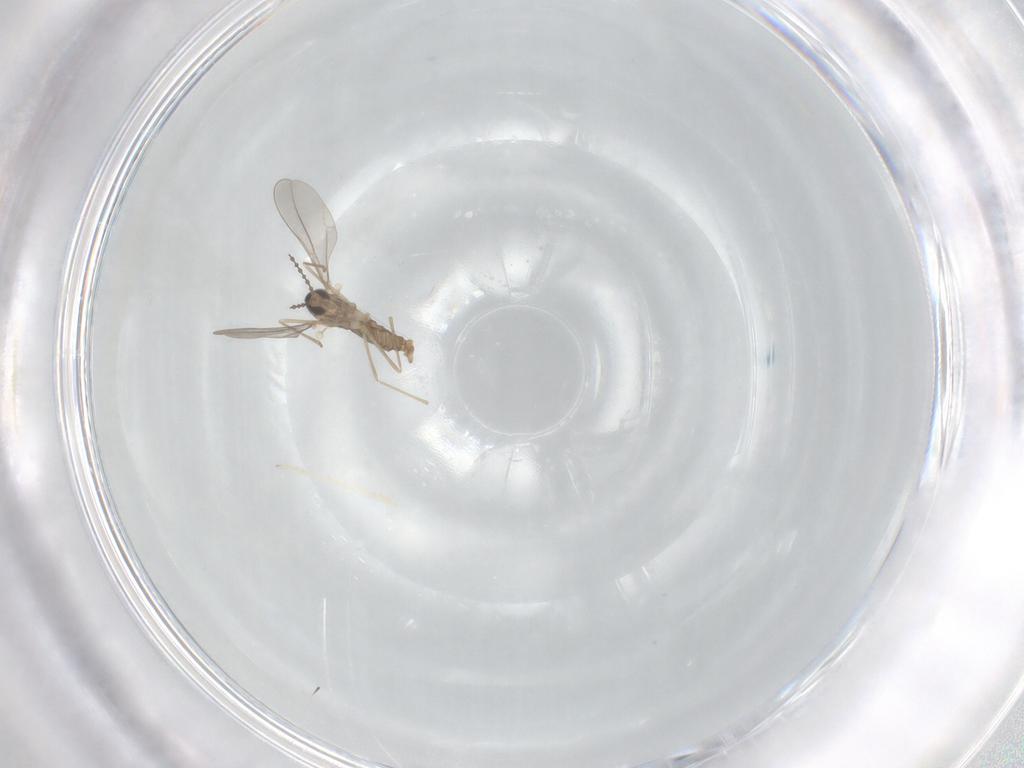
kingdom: Animalia
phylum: Arthropoda
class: Insecta
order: Diptera
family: Cecidomyiidae
